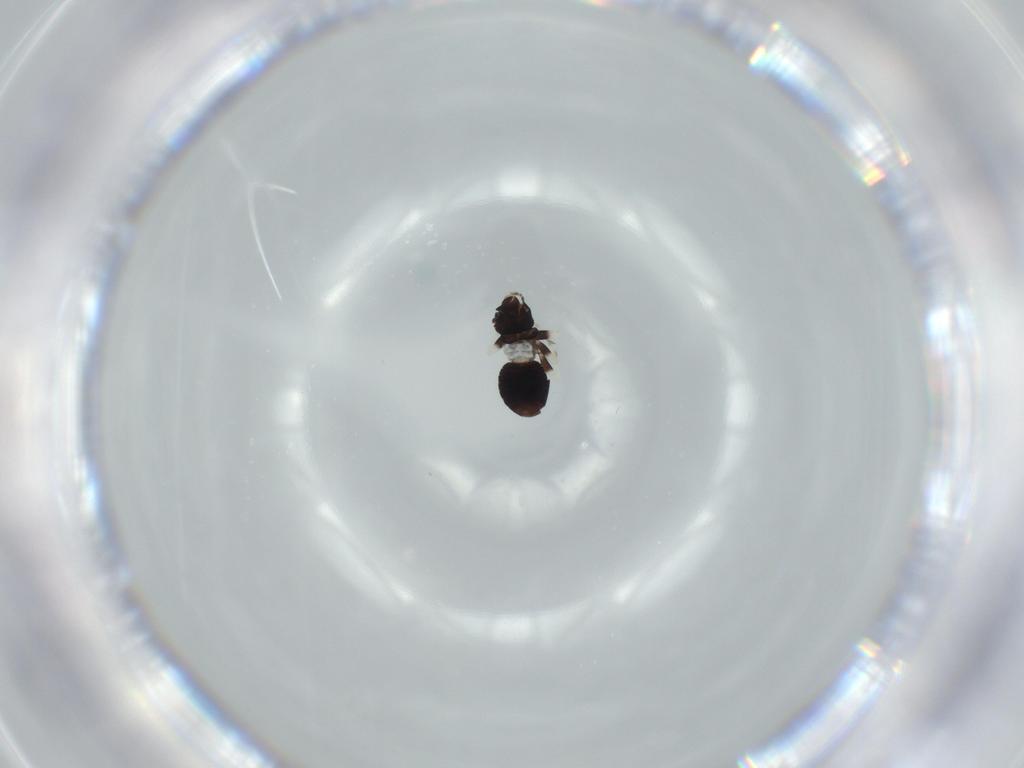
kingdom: Animalia
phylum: Arthropoda
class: Insecta
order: Psocodea
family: Lepidopsocidae
